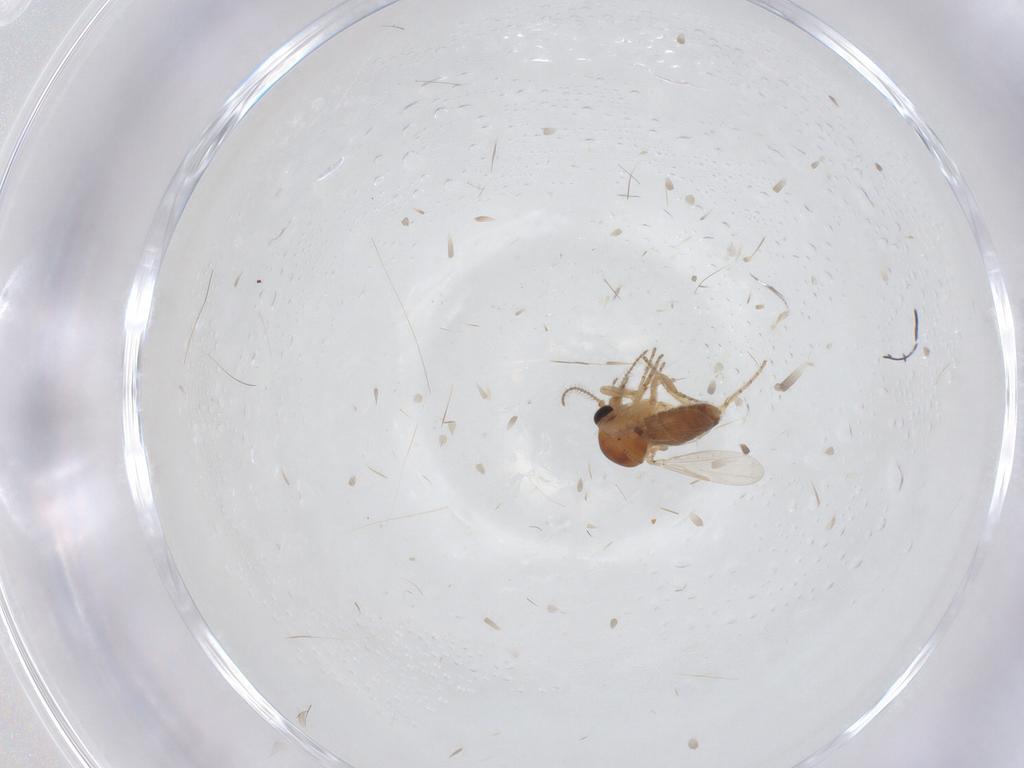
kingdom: Animalia
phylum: Arthropoda
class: Insecta
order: Diptera
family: Ceratopogonidae
